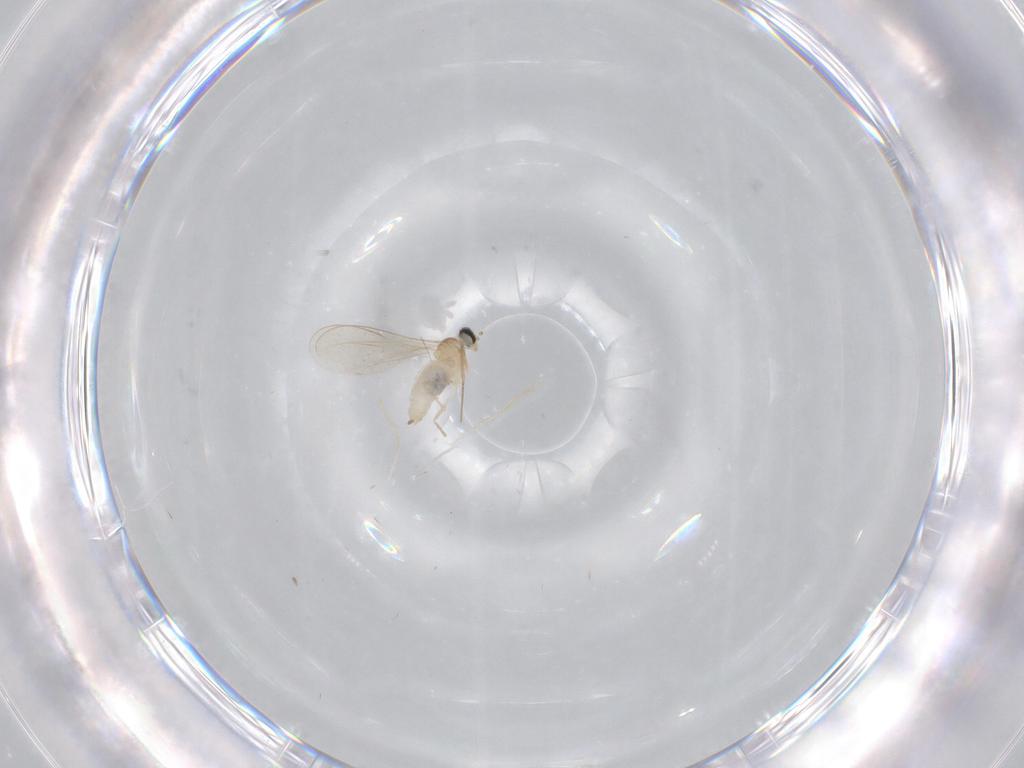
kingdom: Animalia
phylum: Arthropoda
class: Insecta
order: Diptera
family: Cecidomyiidae
